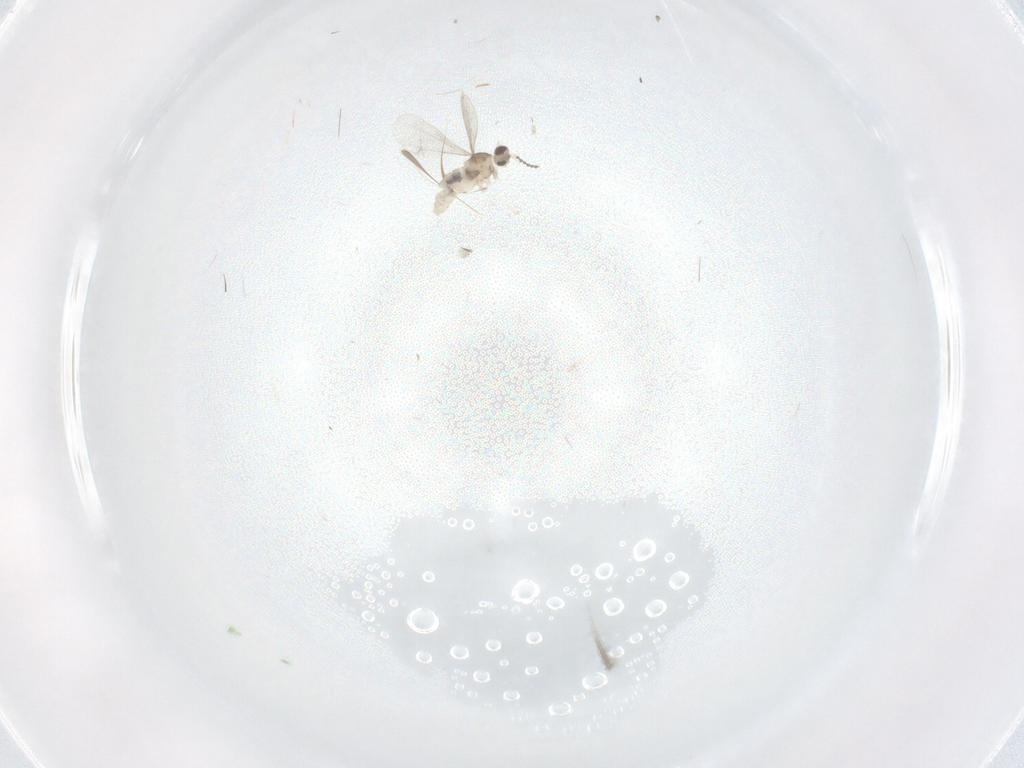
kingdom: Animalia
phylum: Arthropoda
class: Insecta
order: Diptera
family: Cecidomyiidae
